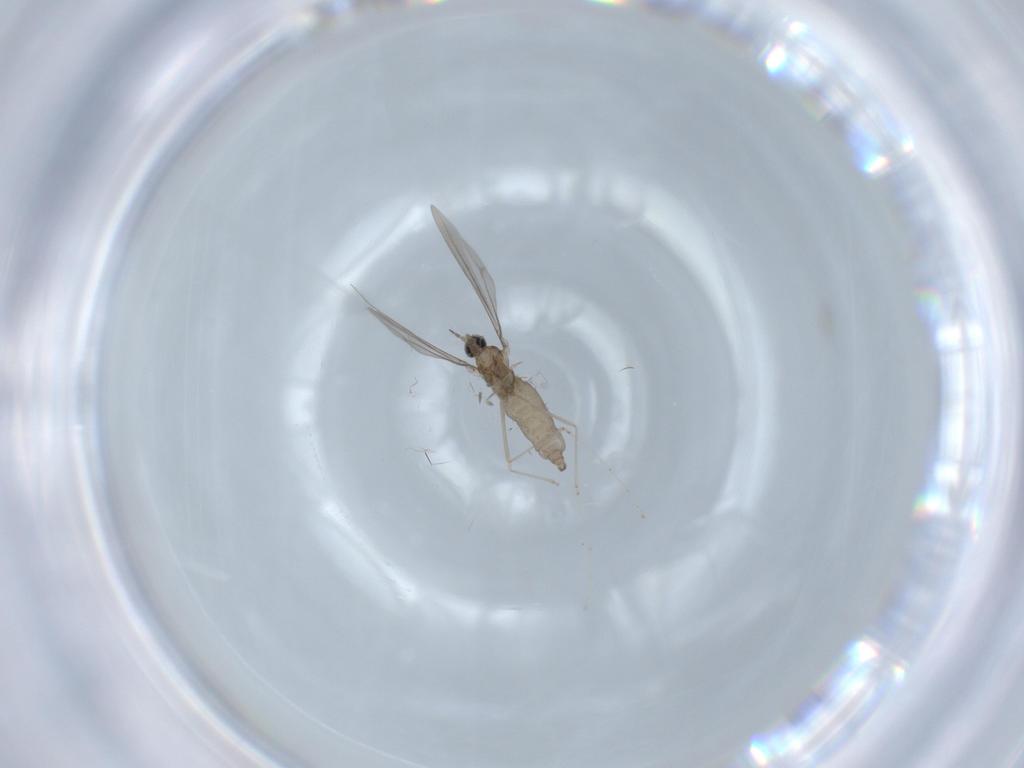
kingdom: Animalia
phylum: Arthropoda
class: Insecta
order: Diptera
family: Cecidomyiidae
